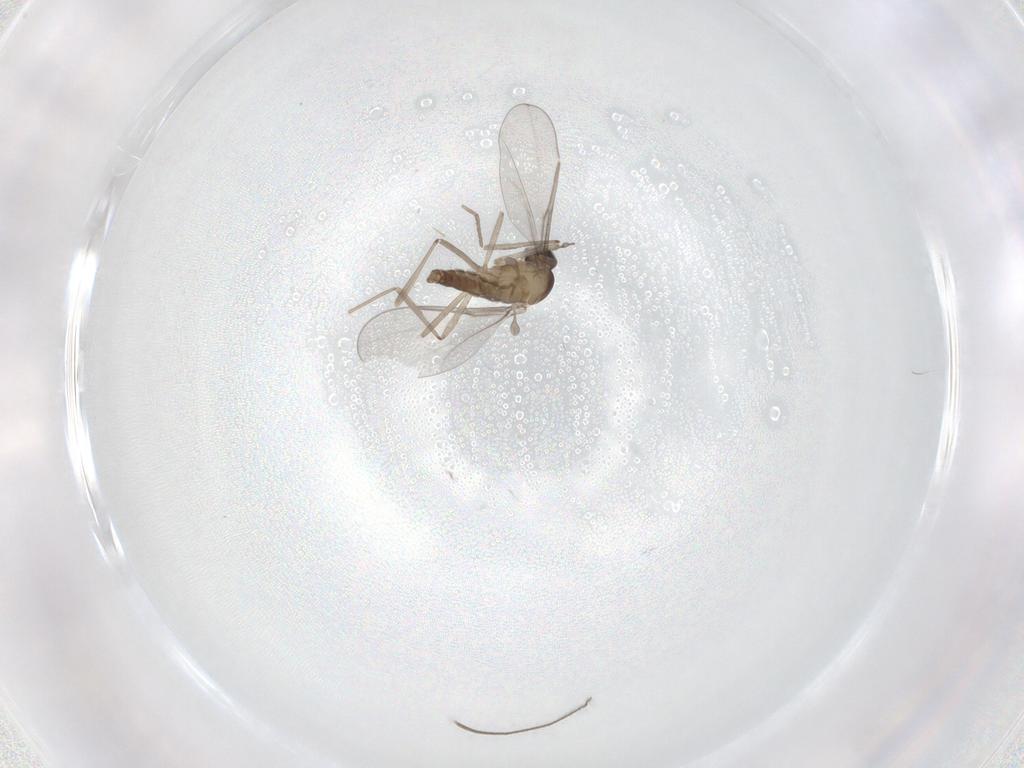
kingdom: Animalia
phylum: Arthropoda
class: Insecta
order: Diptera
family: Cecidomyiidae
